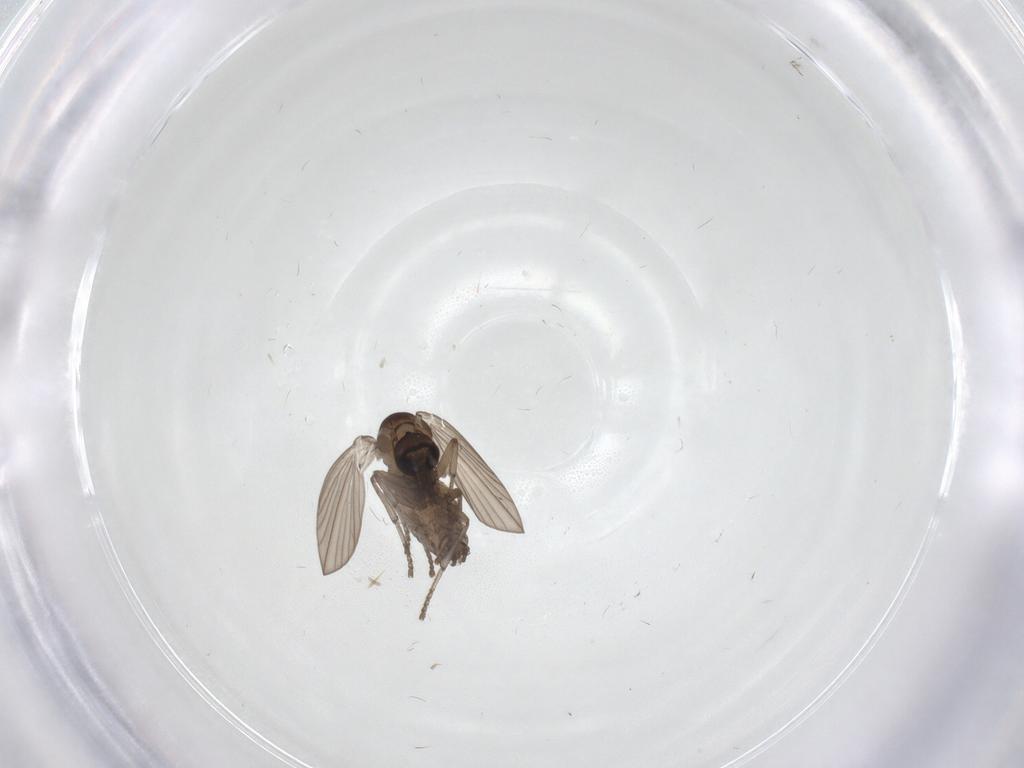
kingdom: Animalia
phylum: Arthropoda
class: Insecta
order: Diptera
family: Psychodidae
